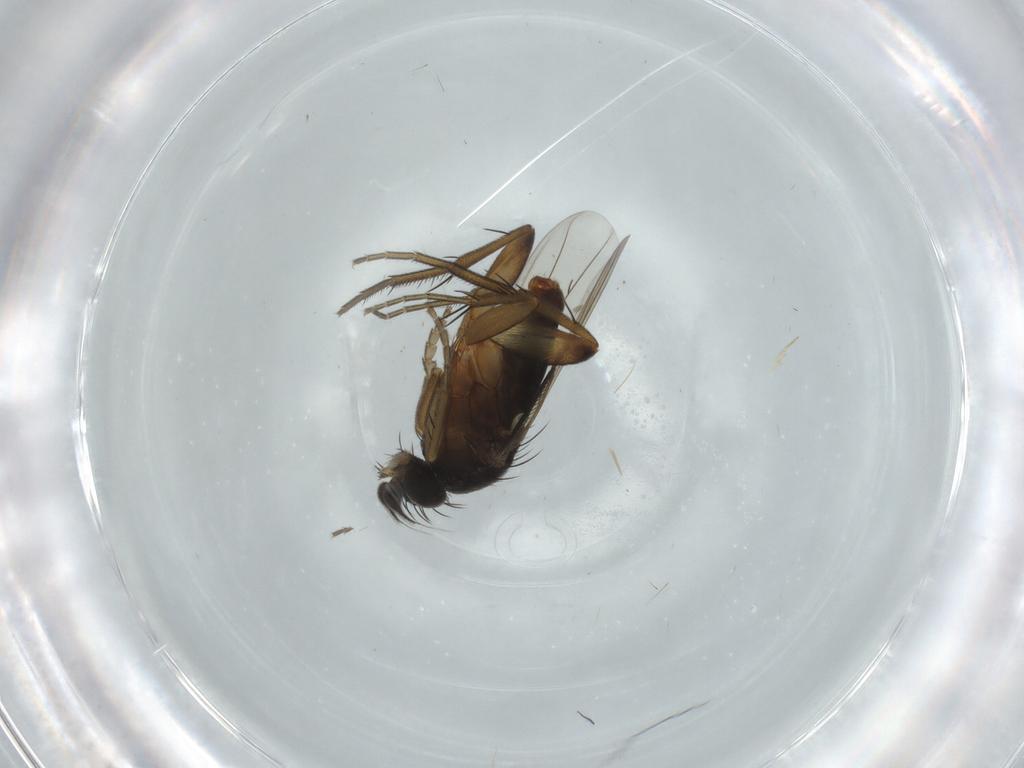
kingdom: Animalia
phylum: Arthropoda
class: Insecta
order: Diptera
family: Phoridae
